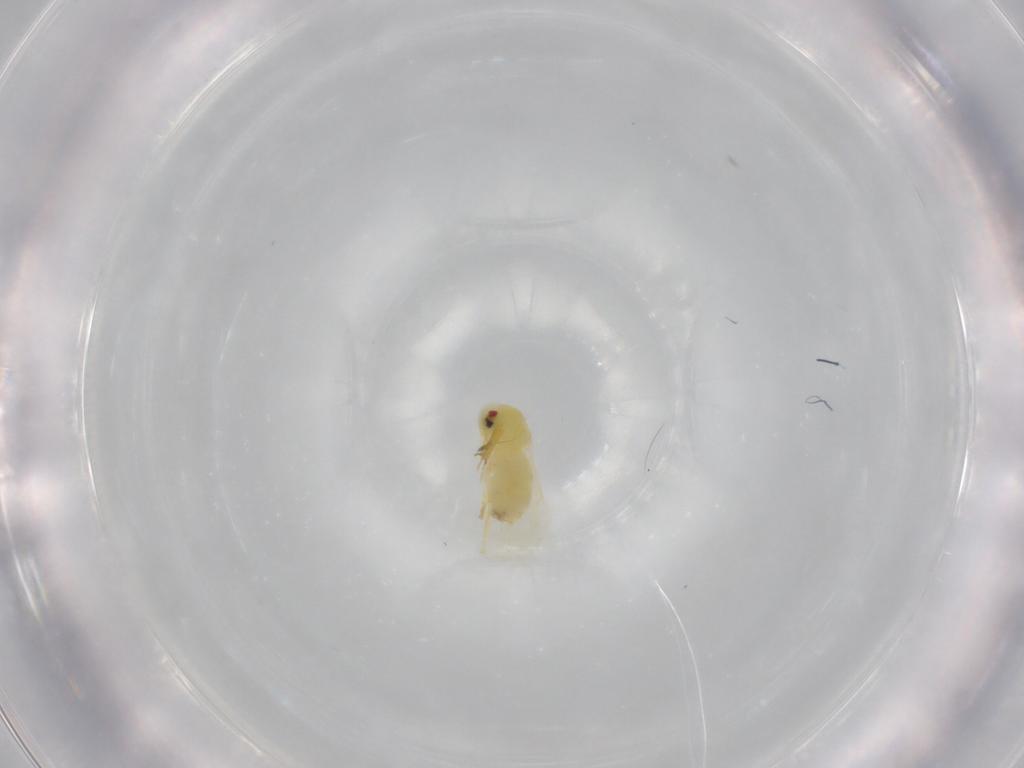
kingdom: Animalia
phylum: Arthropoda
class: Insecta
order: Hemiptera
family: Aleyrodidae
